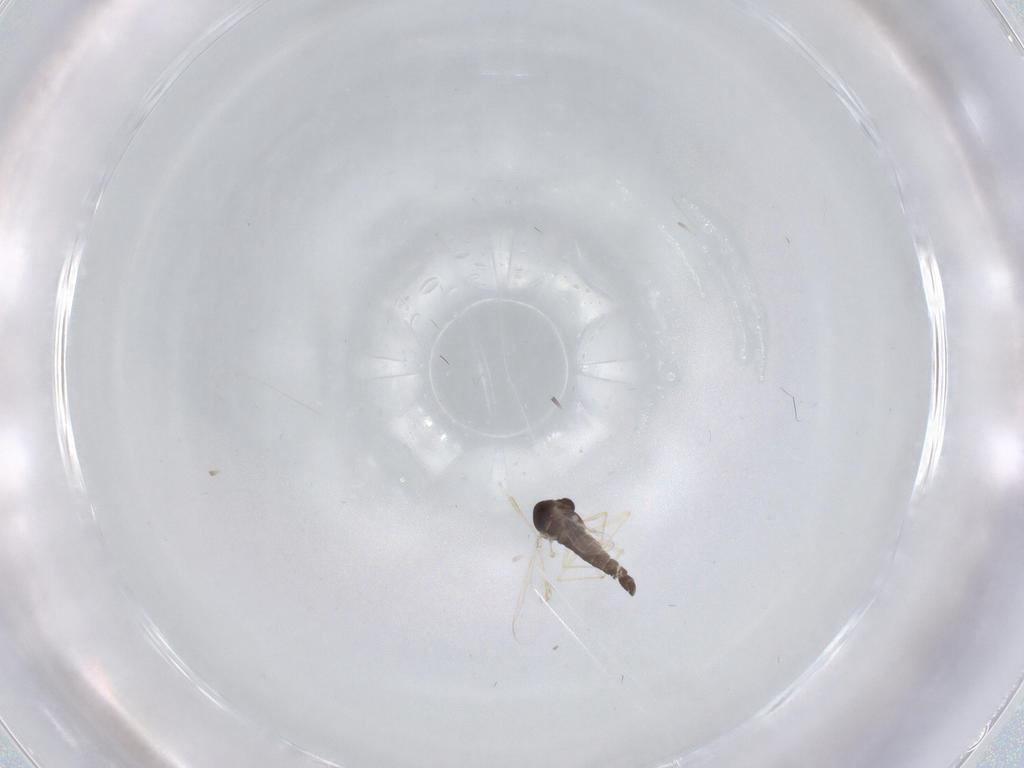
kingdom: Animalia
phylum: Arthropoda
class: Insecta
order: Diptera
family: Chironomidae
